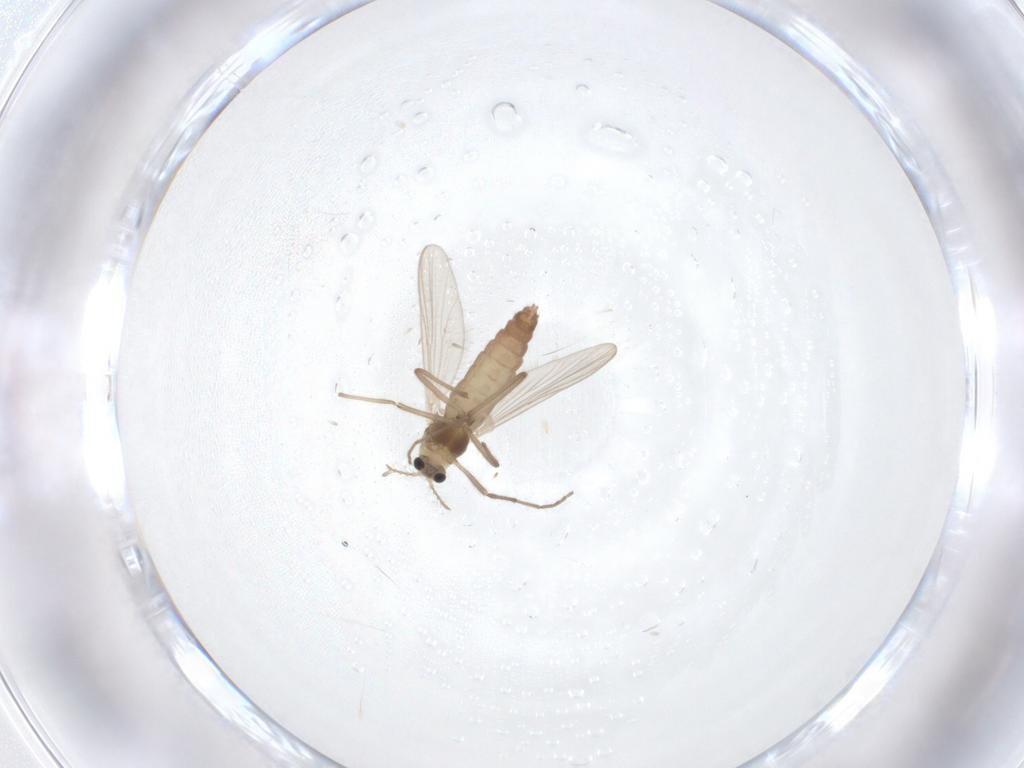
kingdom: Animalia
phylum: Arthropoda
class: Insecta
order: Diptera
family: Chironomidae
